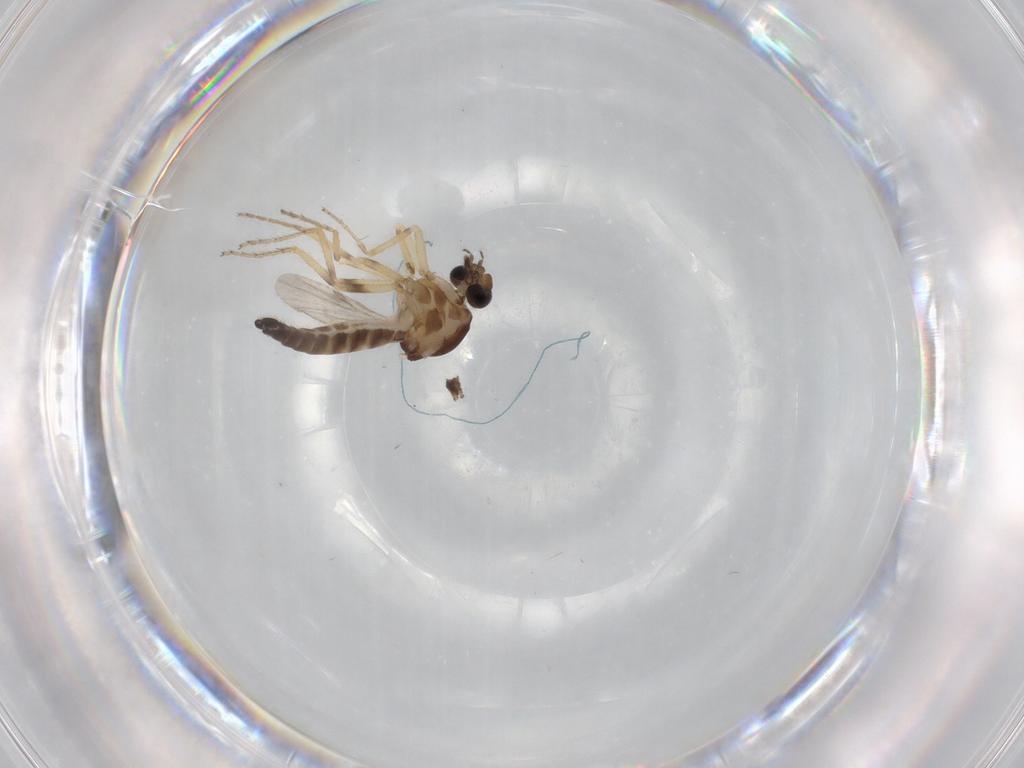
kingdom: Animalia
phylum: Arthropoda
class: Insecta
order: Diptera
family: Ceratopogonidae
